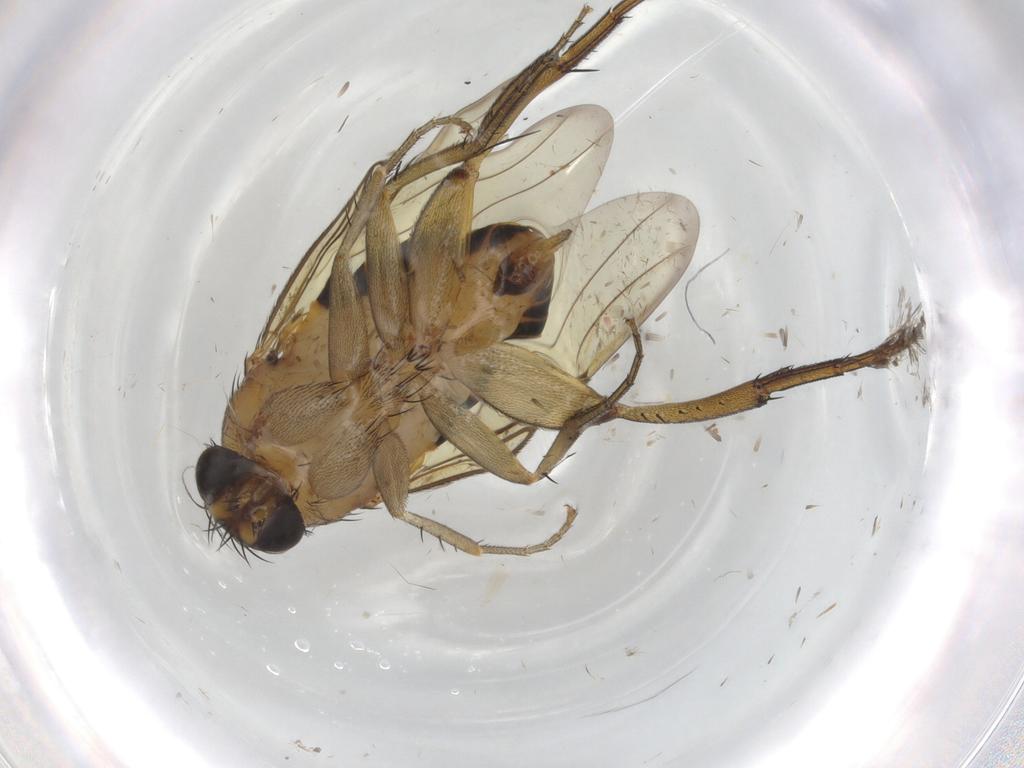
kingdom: Animalia
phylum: Arthropoda
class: Insecta
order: Diptera
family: Phoridae
